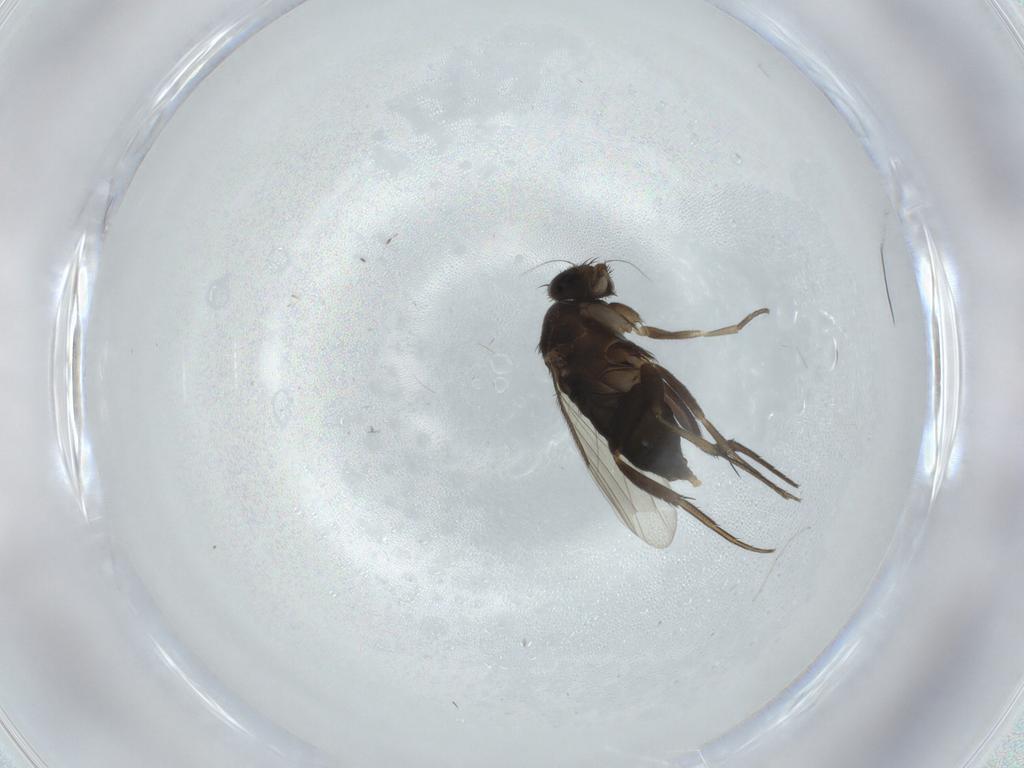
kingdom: Animalia
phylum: Arthropoda
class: Insecta
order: Diptera
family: Phoridae
